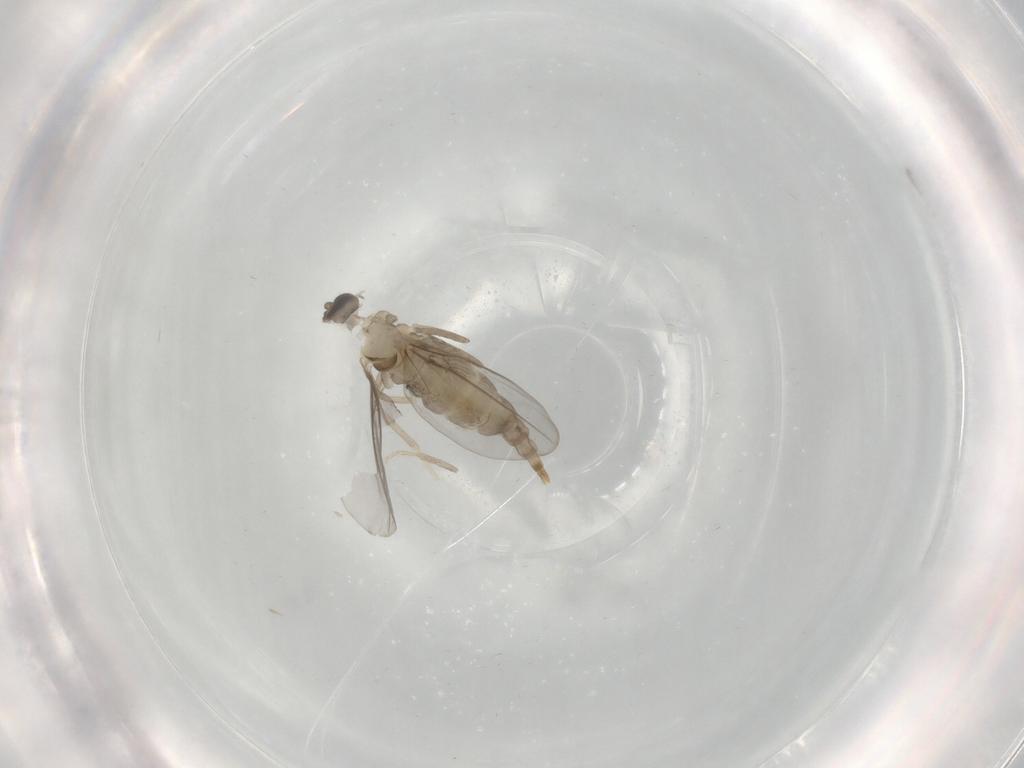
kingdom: Animalia
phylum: Arthropoda
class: Insecta
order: Diptera
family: Cecidomyiidae
